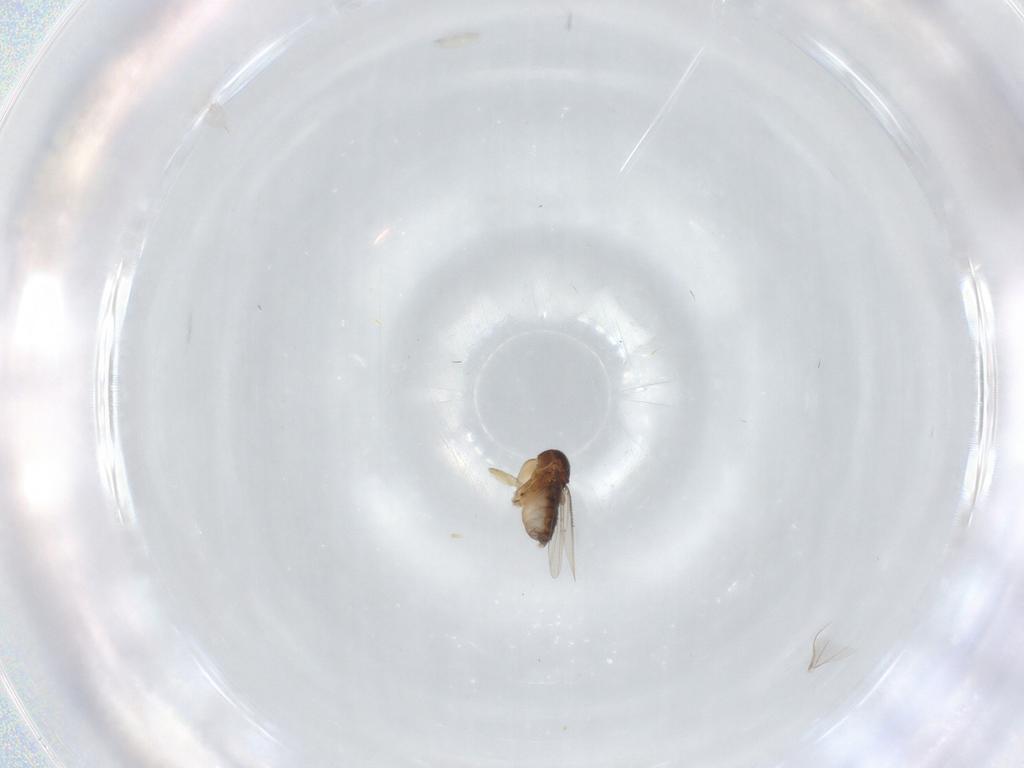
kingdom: Animalia
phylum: Arthropoda
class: Insecta
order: Diptera
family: Phoridae
